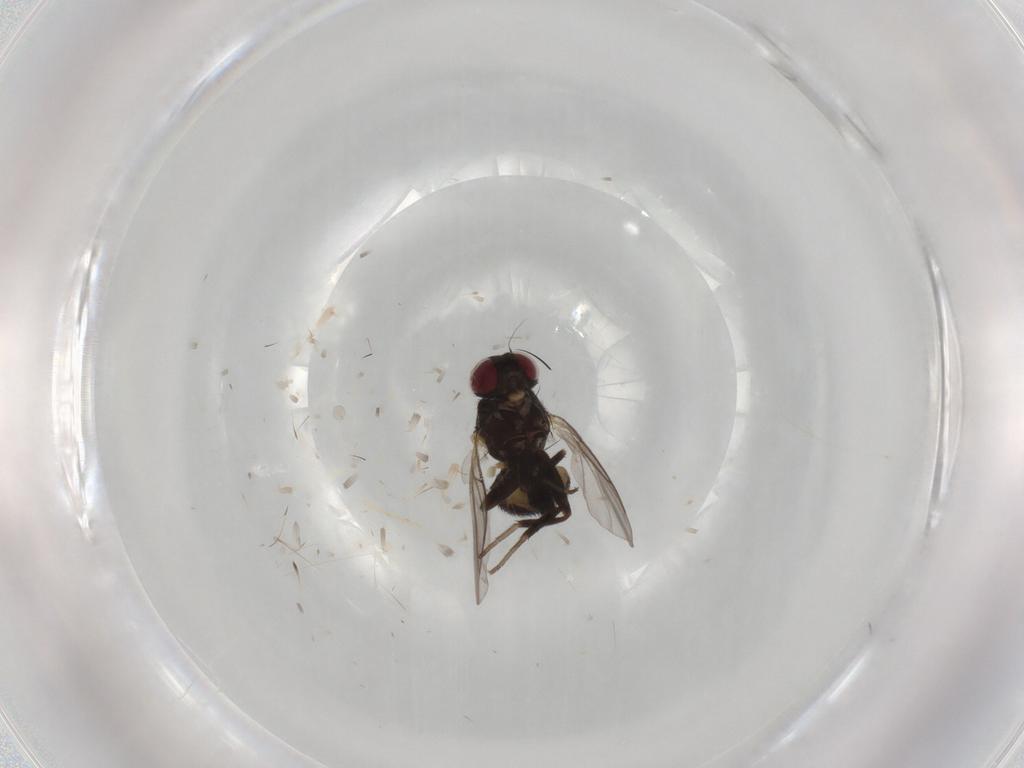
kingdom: Animalia
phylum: Arthropoda
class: Insecta
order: Diptera
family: Cecidomyiidae
